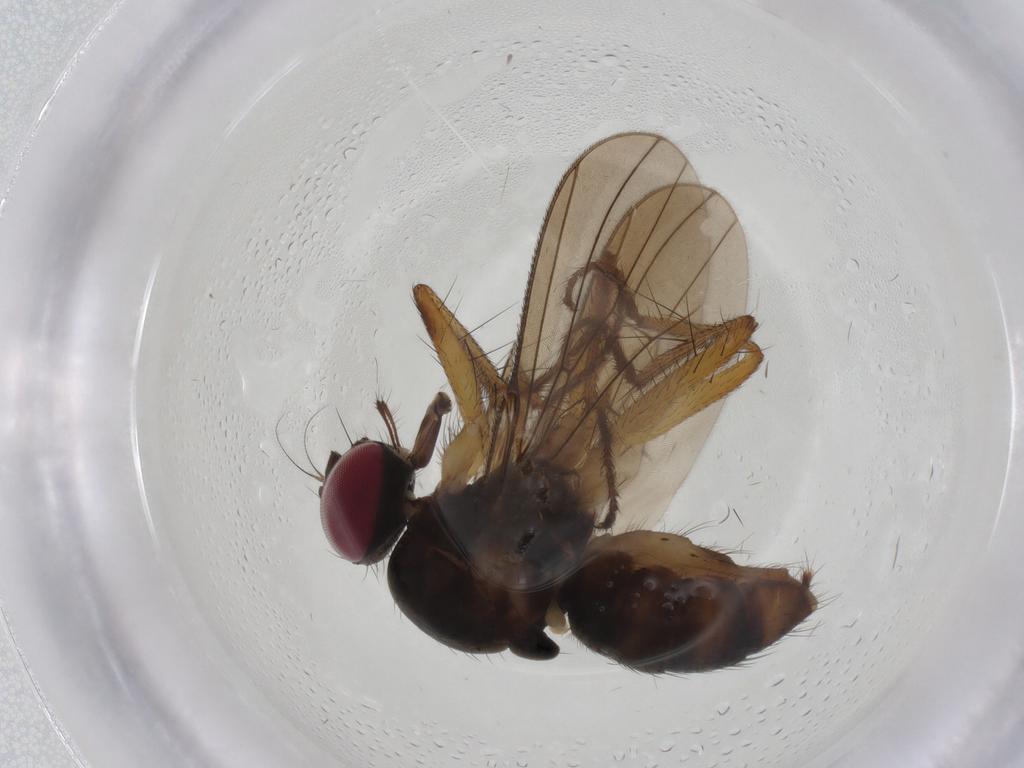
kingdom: Animalia
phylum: Arthropoda
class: Insecta
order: Diptera
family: Anthomyiidae
